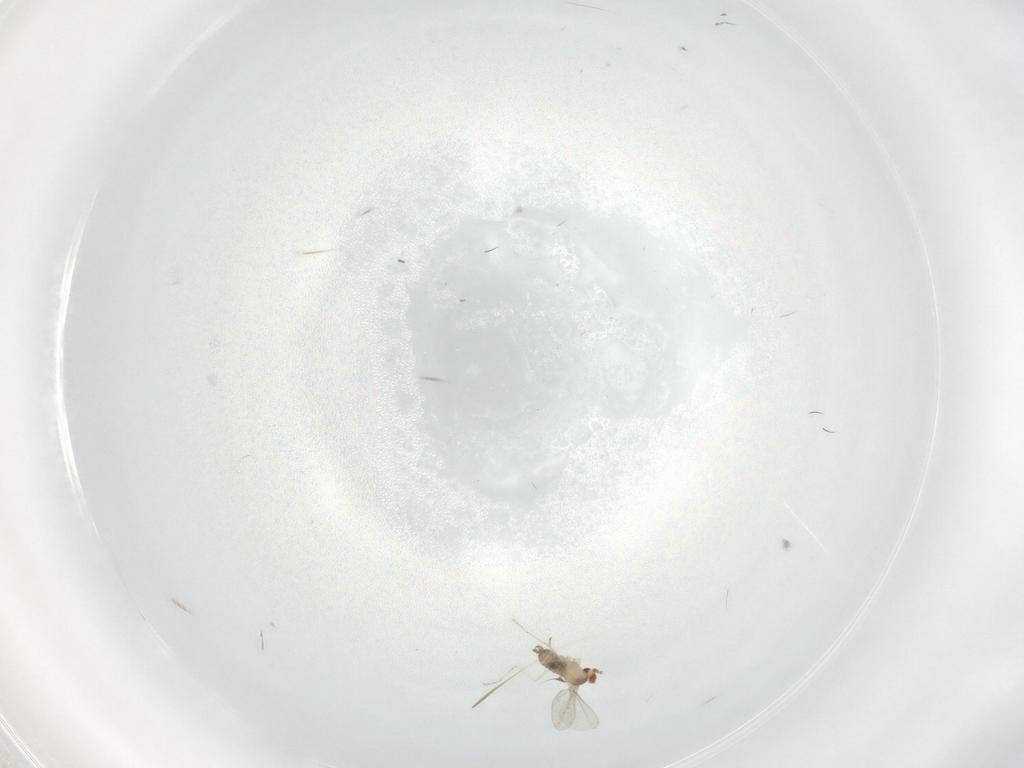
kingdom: Animalia
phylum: Arthropoda
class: Insecta
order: Diptera
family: Cecidomyiidae
